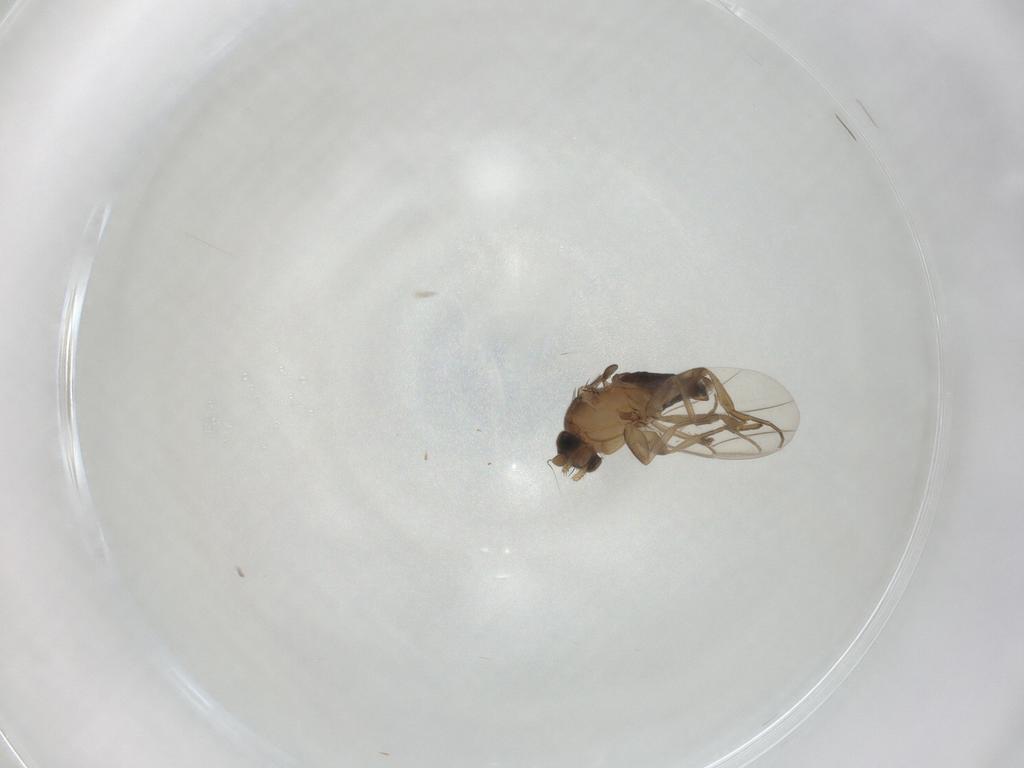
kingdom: Animalia
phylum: Arthropoda
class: Insecta
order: Diptera
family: Phoridae
